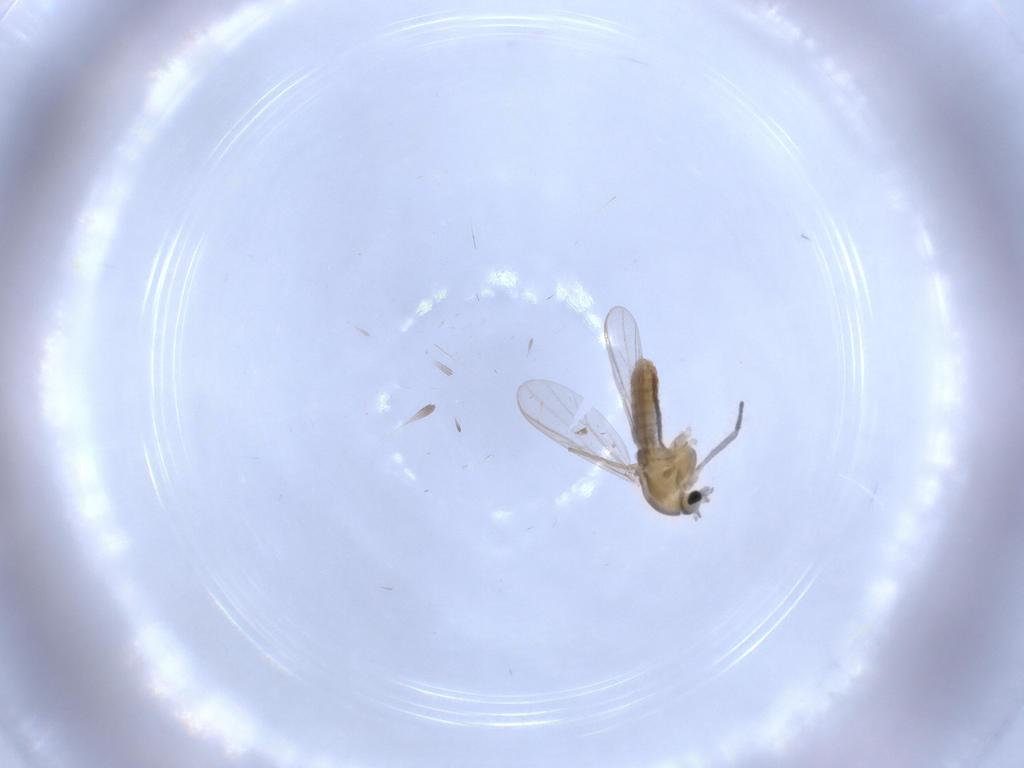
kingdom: Animalia
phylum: Arthropoda
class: Insecta
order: Diptera
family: Chironomidae
